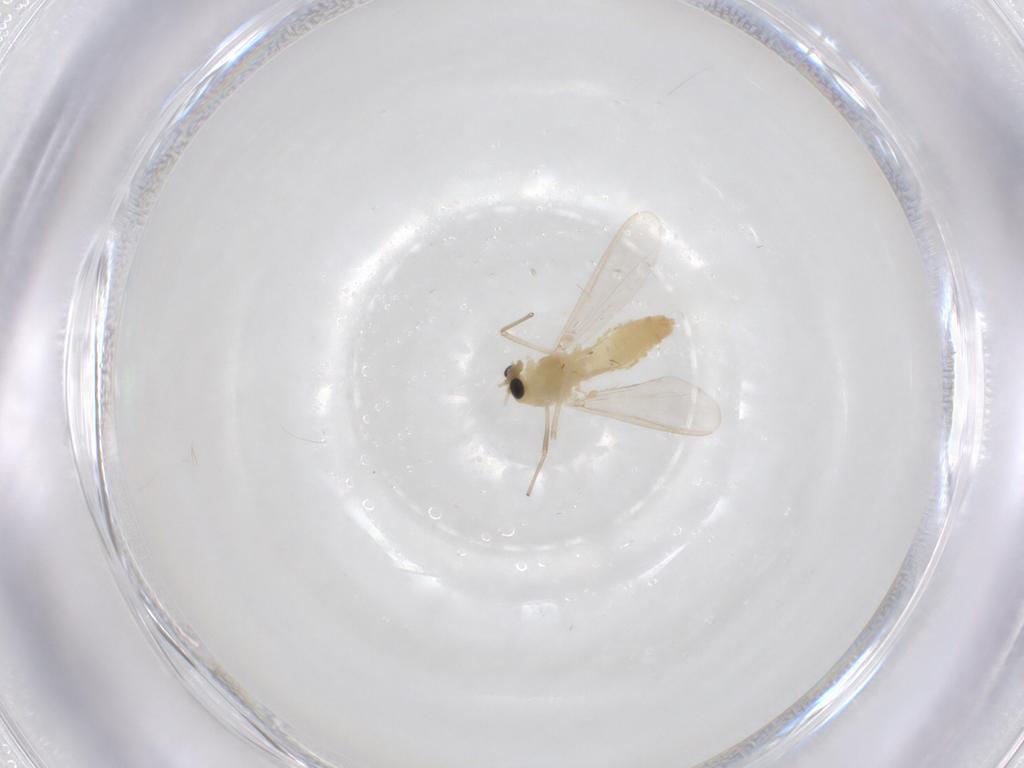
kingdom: Animalia
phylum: Arthropoda
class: Insecta
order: Diptera
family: Chironomidae
